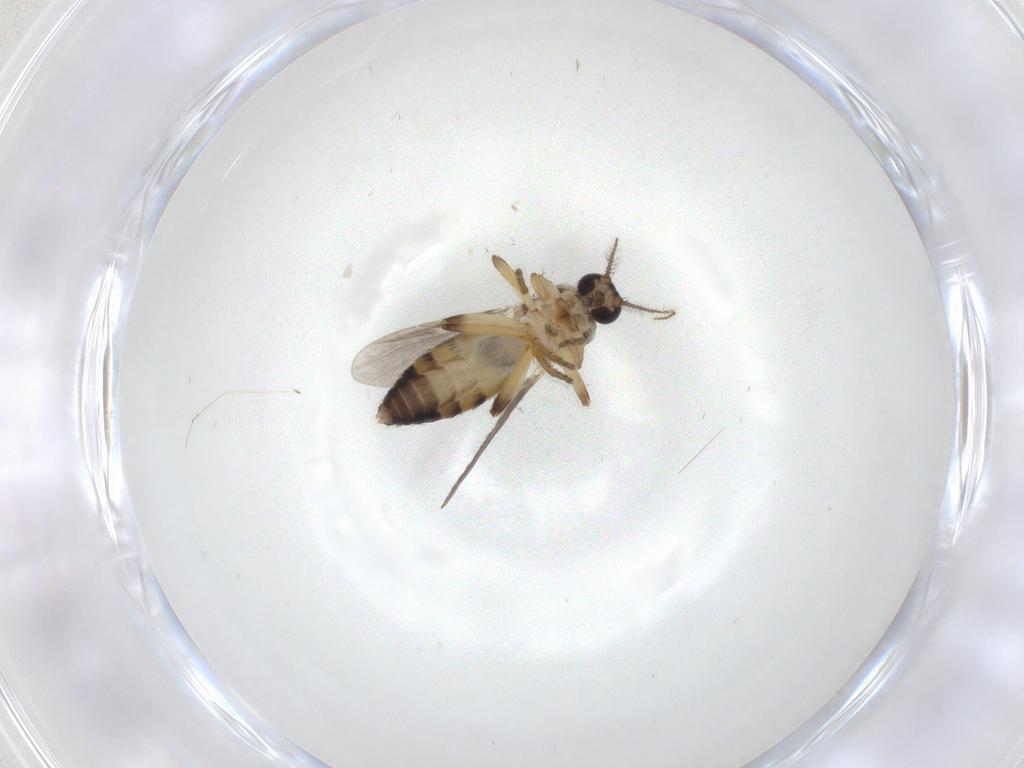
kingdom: Animalia
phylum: Arthropoda
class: Insecta
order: Diptera
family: Ceratopogonidae
